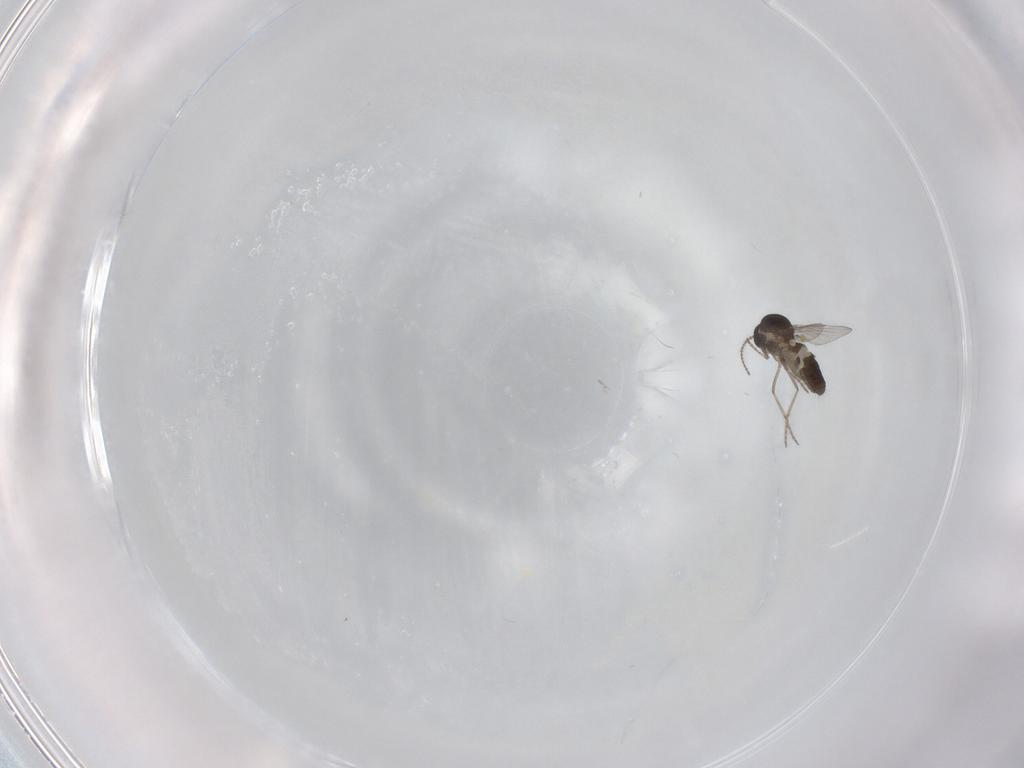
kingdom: Animalia
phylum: Arthropoda
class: Insecta
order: Diptera
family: Ceratopogonidae
